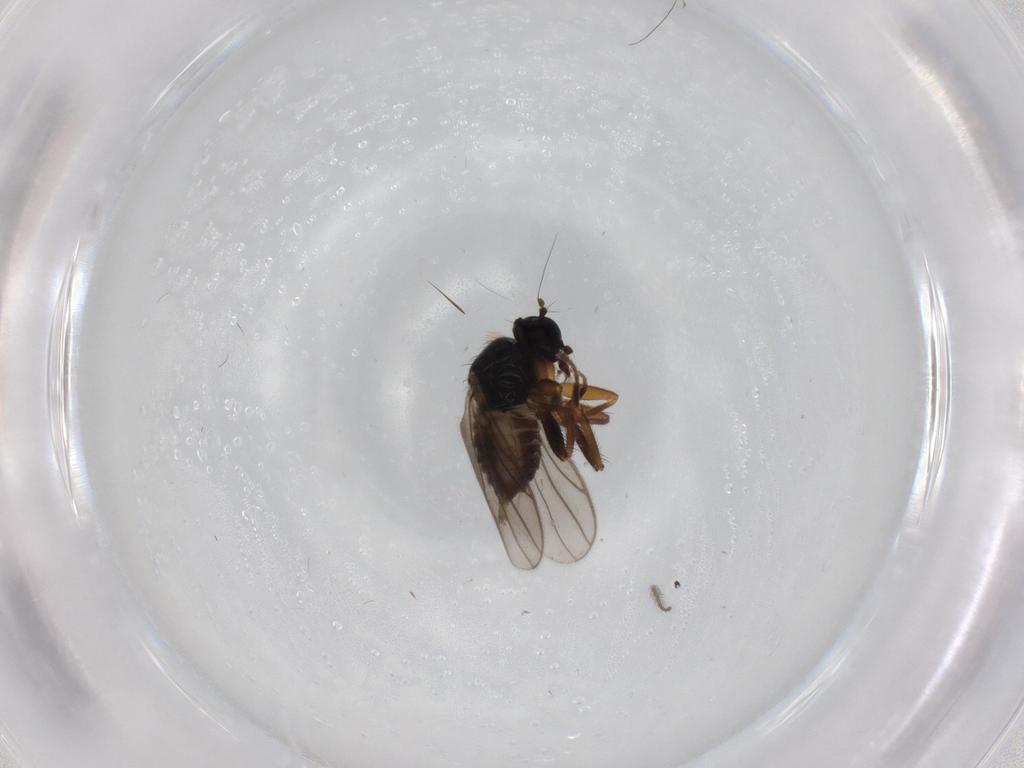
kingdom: Animalia
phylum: Arthropoda
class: Insecta
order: Diptera
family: Hybotidae
